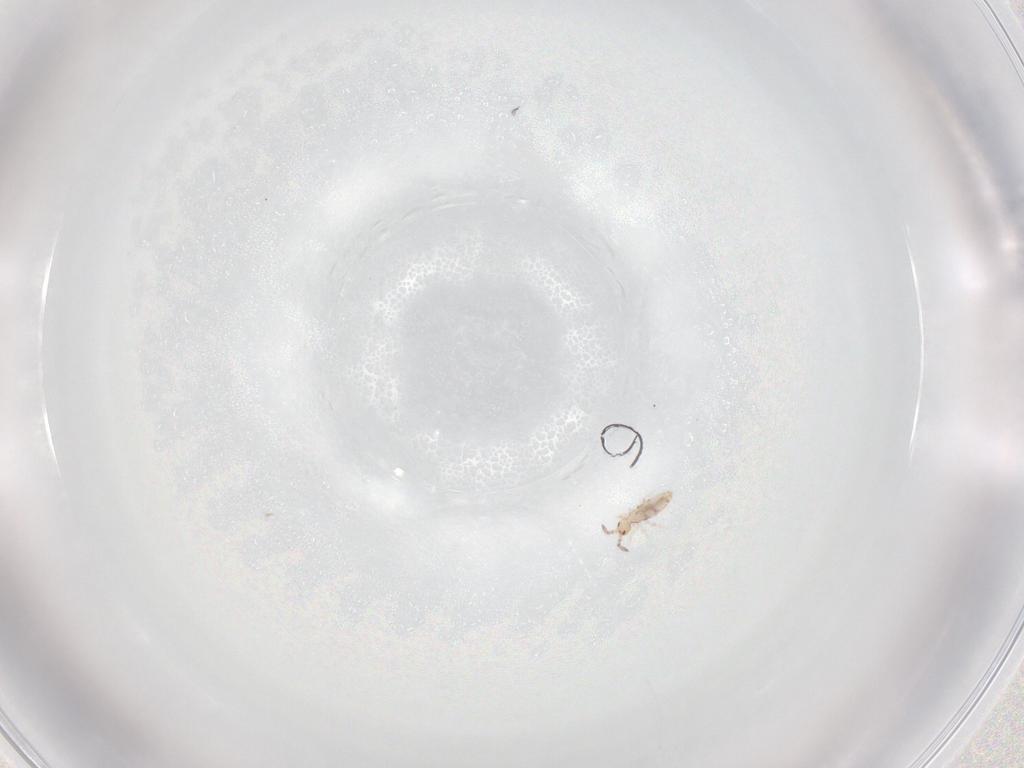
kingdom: Animalia
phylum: Arthropoda
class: Collembola
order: Entomobryomorpha
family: Entomobryidae
